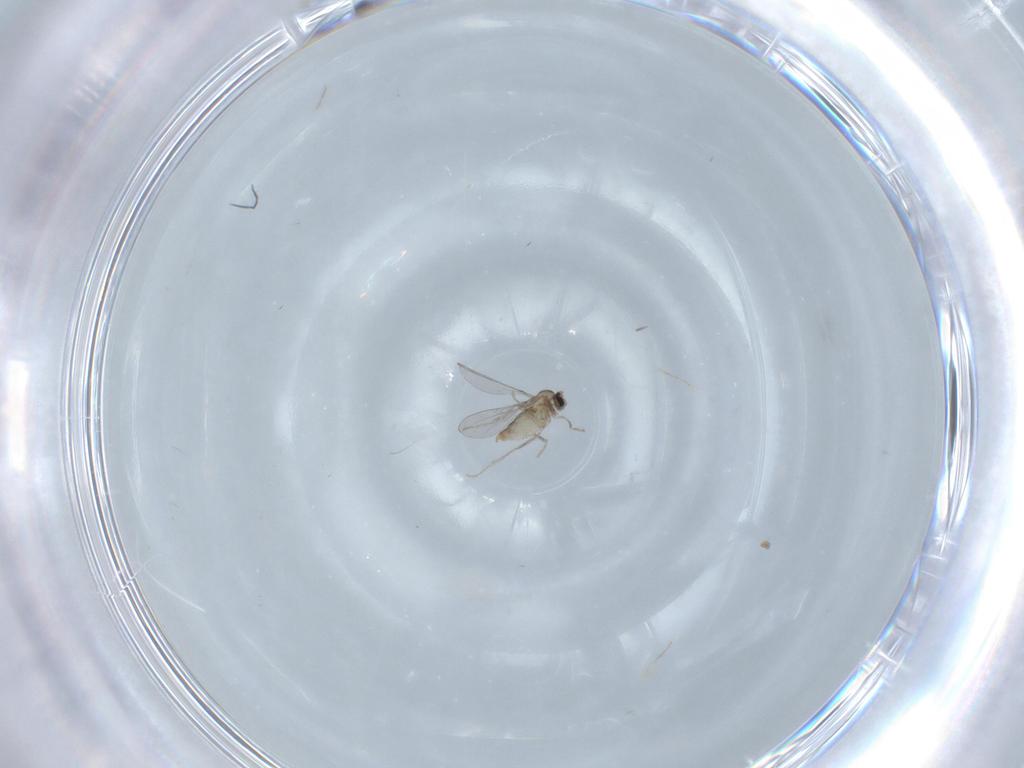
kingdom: Animalia
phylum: Arthropoda
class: Insecta
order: Diptera
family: Cecidomyiidae
